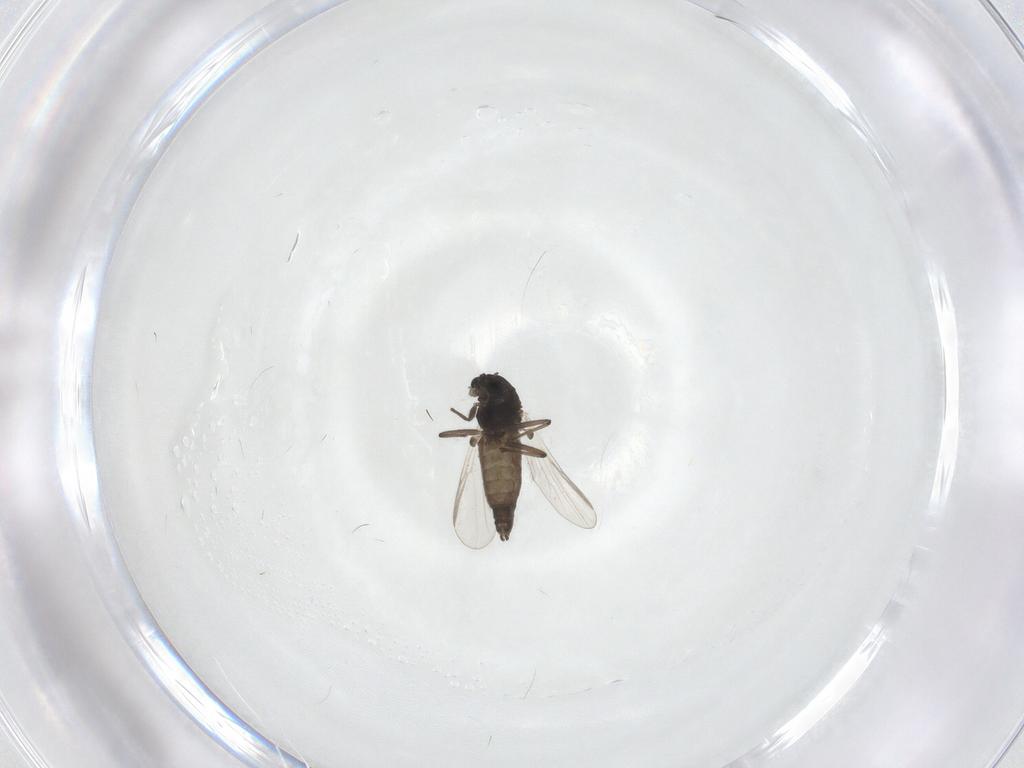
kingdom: Animalia
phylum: Arthropoda
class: Insecta
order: Diptera
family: Chironomidae
